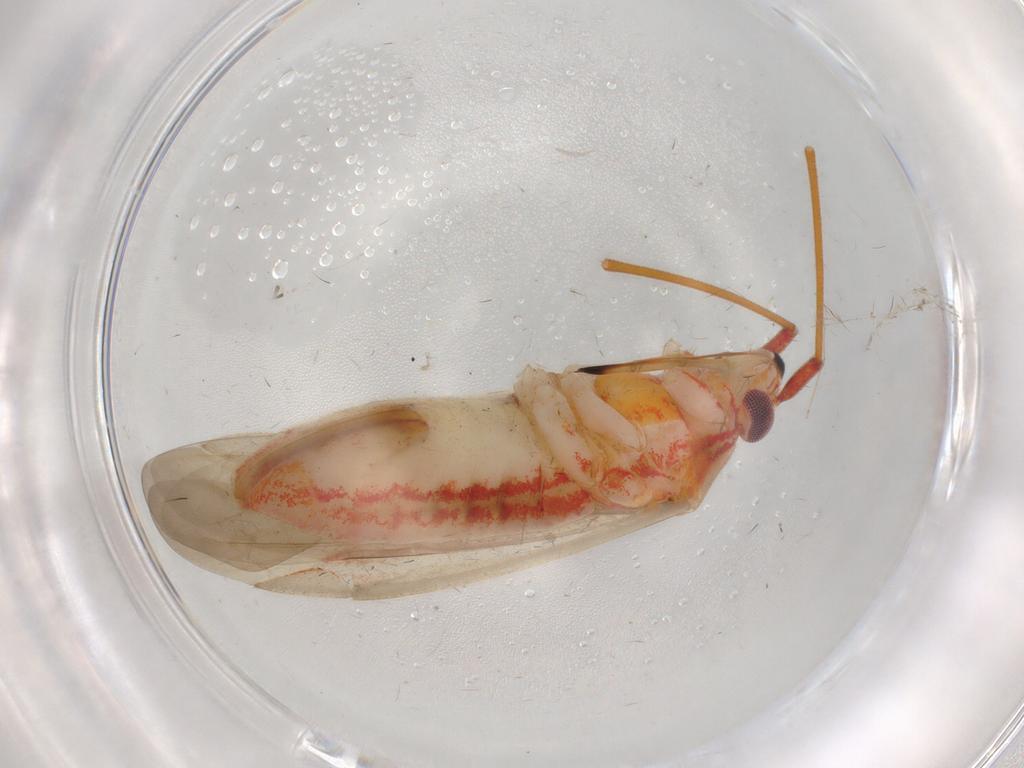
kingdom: Animalia
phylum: Arthropoda
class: Insecta
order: Hemiptera
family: Miridae
